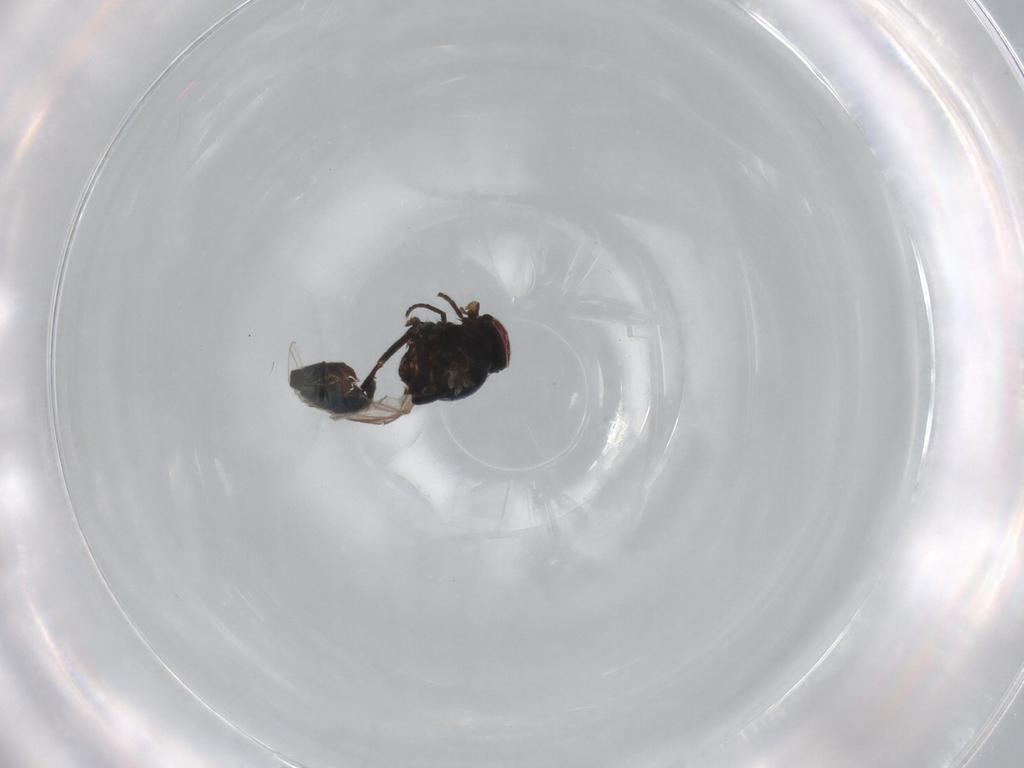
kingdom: Animalia
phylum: Arthropoda
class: Insecta
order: Diptera
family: Agromyzidae
